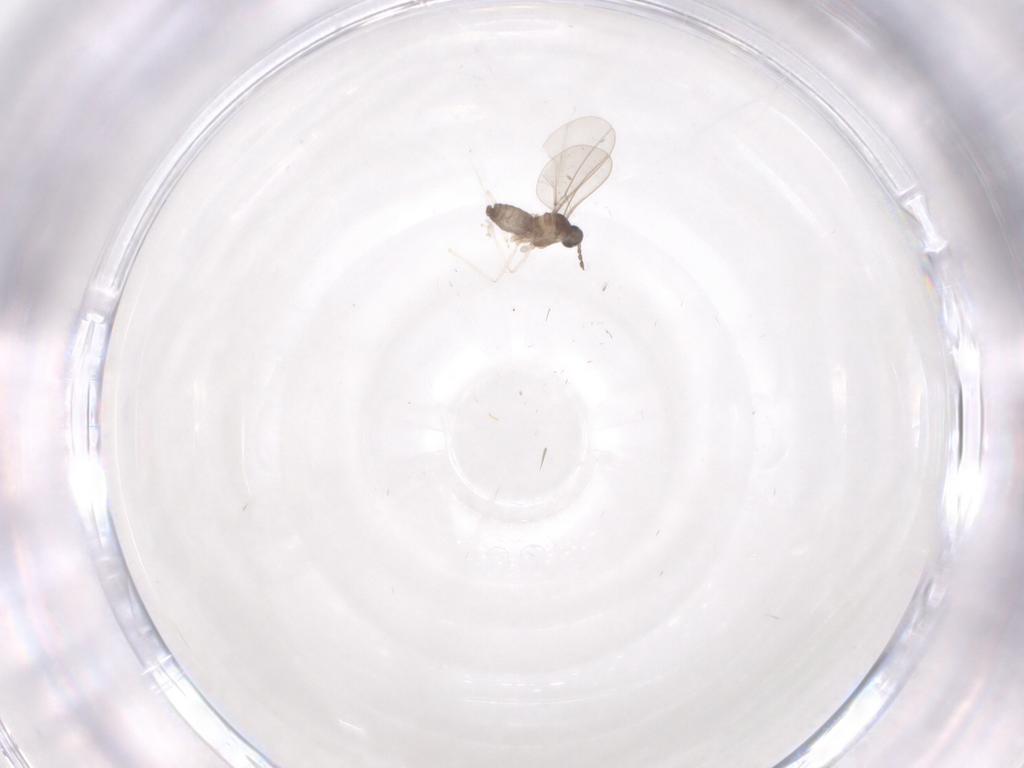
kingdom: Animalia
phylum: Arthropoda
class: Insecta
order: Diptera
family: Cecidomyiidae
